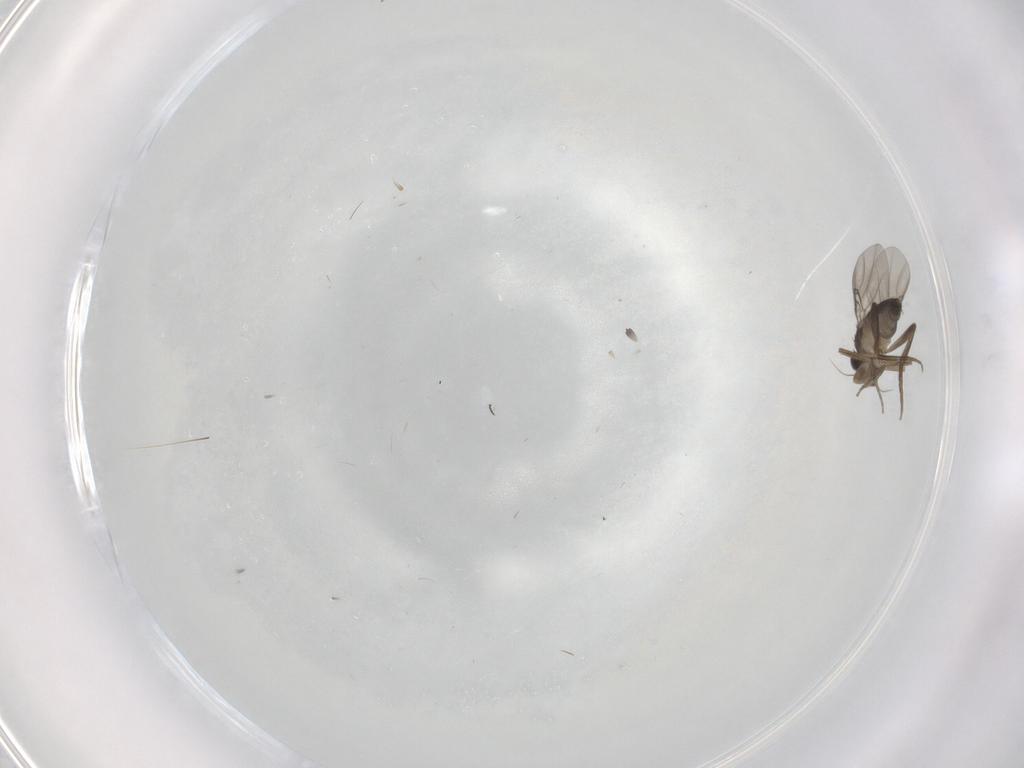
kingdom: Animalia
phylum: Arthropoda
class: Insecta
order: Diptera
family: Phoridae
